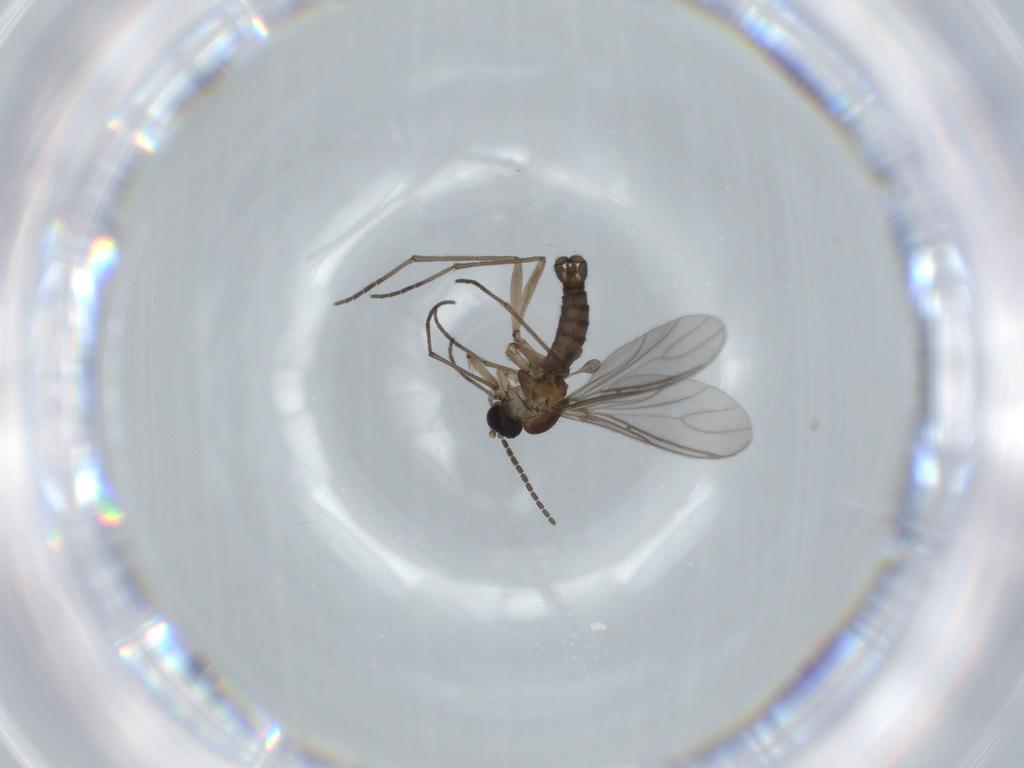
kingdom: Animalia
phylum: Arthropoda
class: Insecta
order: Diptera
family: Sciaridae
